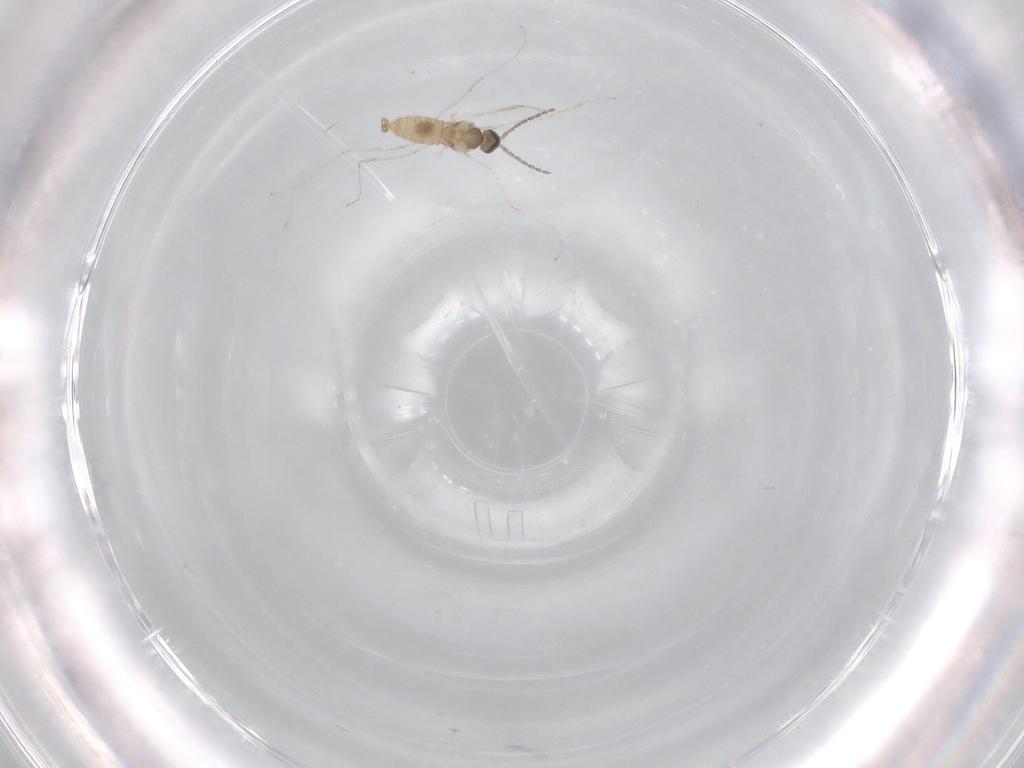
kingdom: Animalia
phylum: Arthropoda
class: Insecta
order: Diptera
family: Cecidomyiidae
